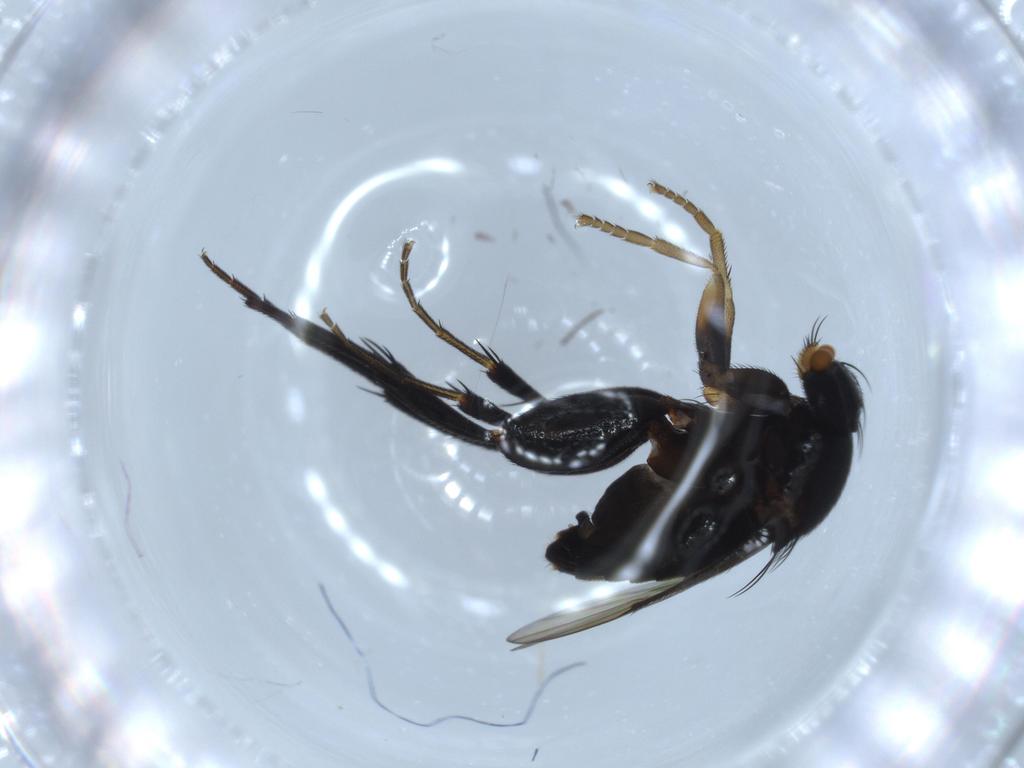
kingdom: Animalia
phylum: Arthropoda
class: Insecta
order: Diptera
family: Phoridae
